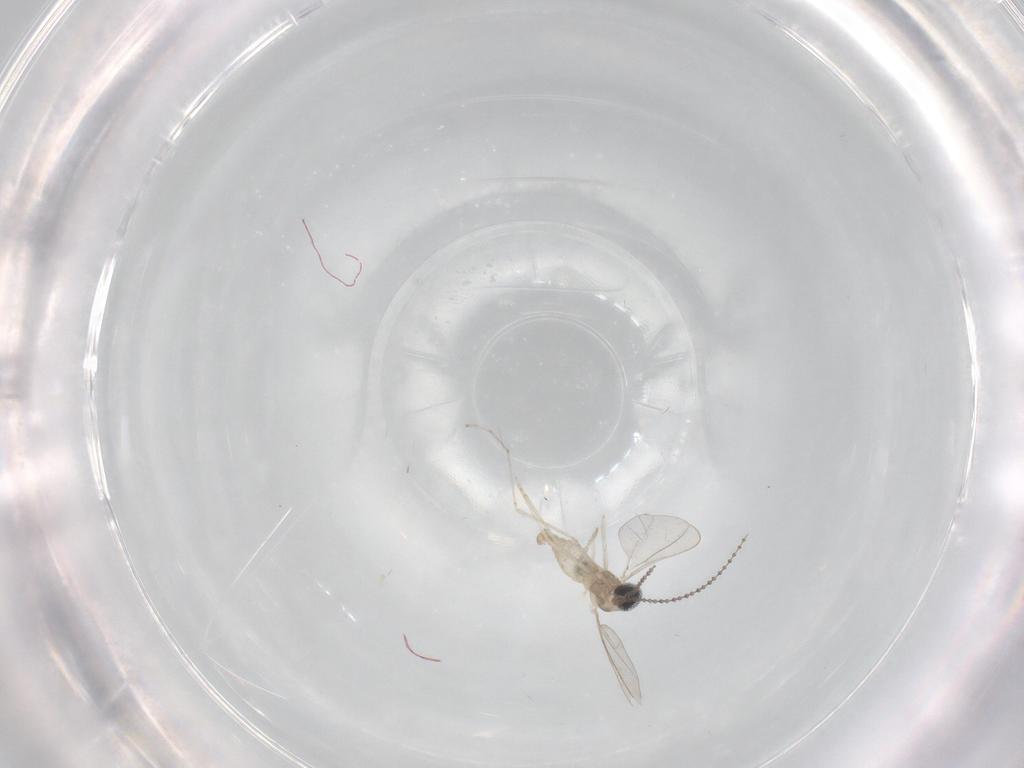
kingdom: Animalia
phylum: Arthropoda
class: Insecta
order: Diptera
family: Cecidomyiidae
